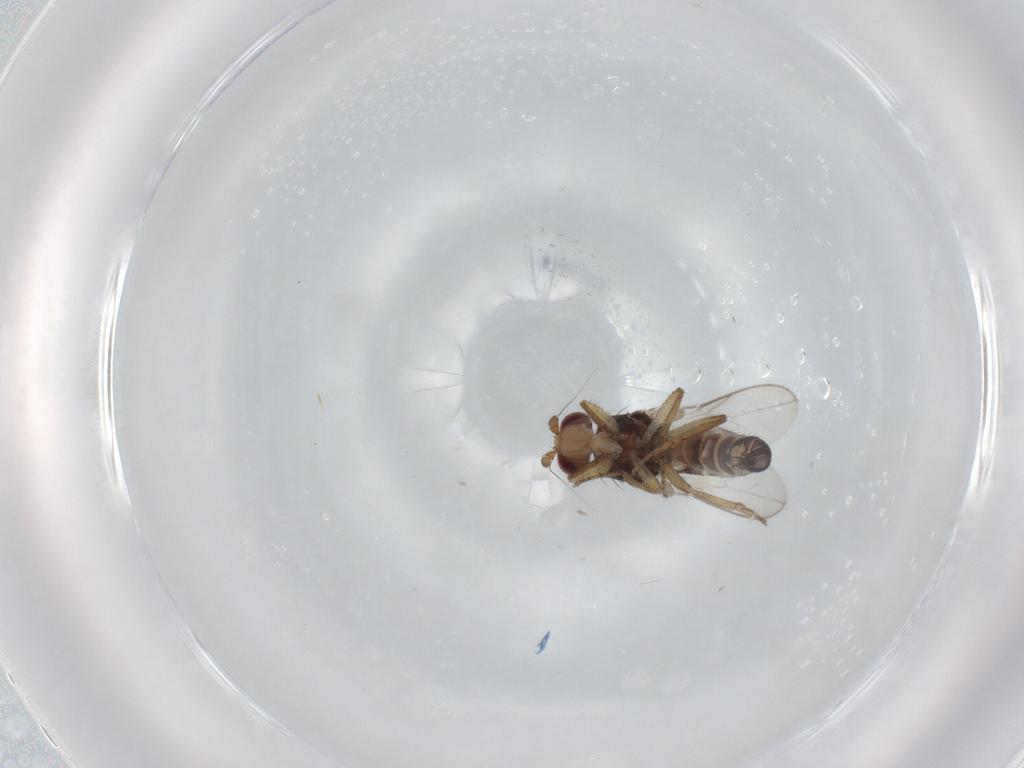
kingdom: Animalia
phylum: Arthropoda
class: Insecta
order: Diptera
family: Cecidomyiidae
